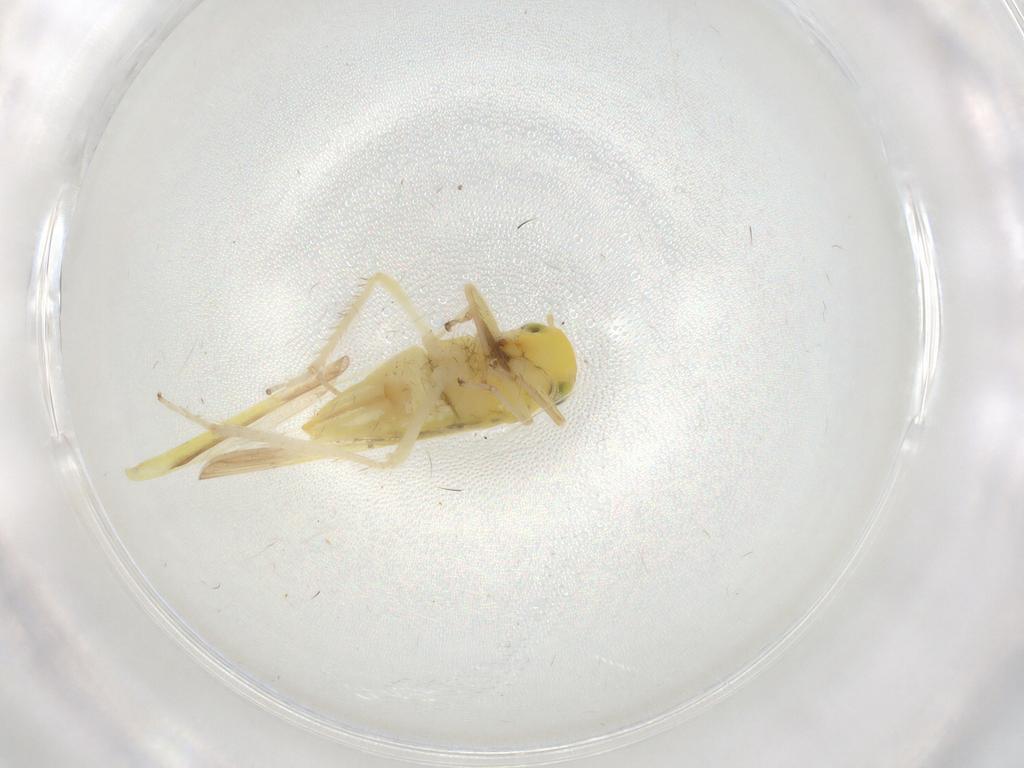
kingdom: Animalia
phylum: Arthropoda
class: Insecta
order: Hemiptera
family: Cicadellidae
